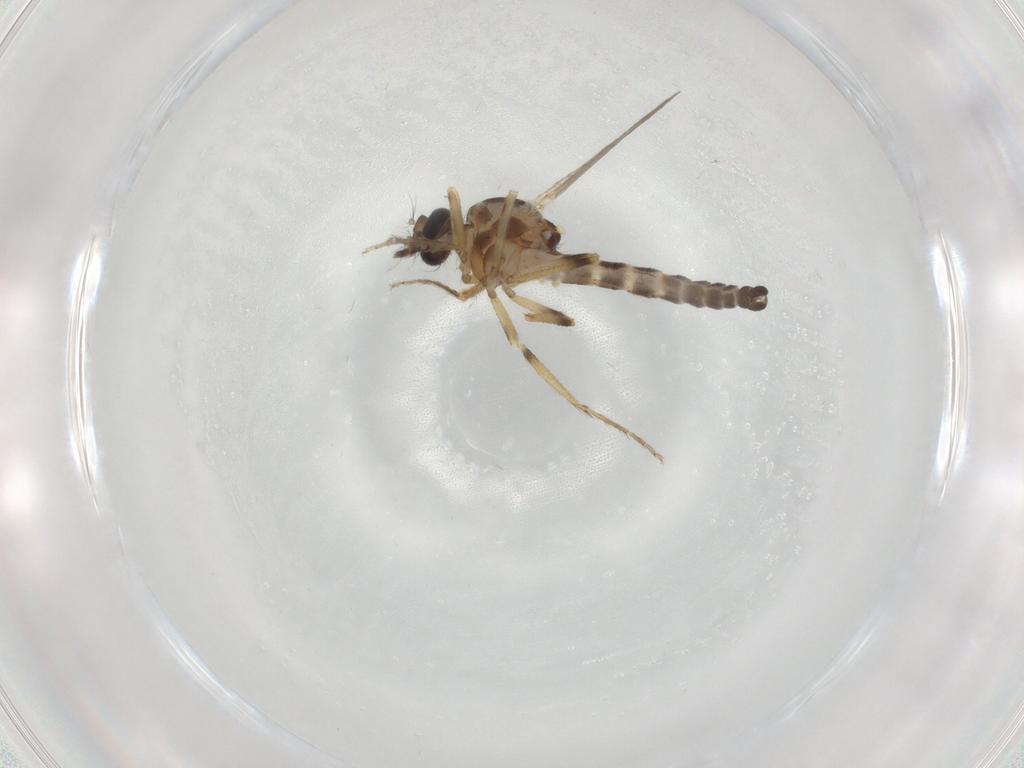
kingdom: Animalia
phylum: Arthropoda
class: Insecta
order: Diptera
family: Ceratopogonidae
